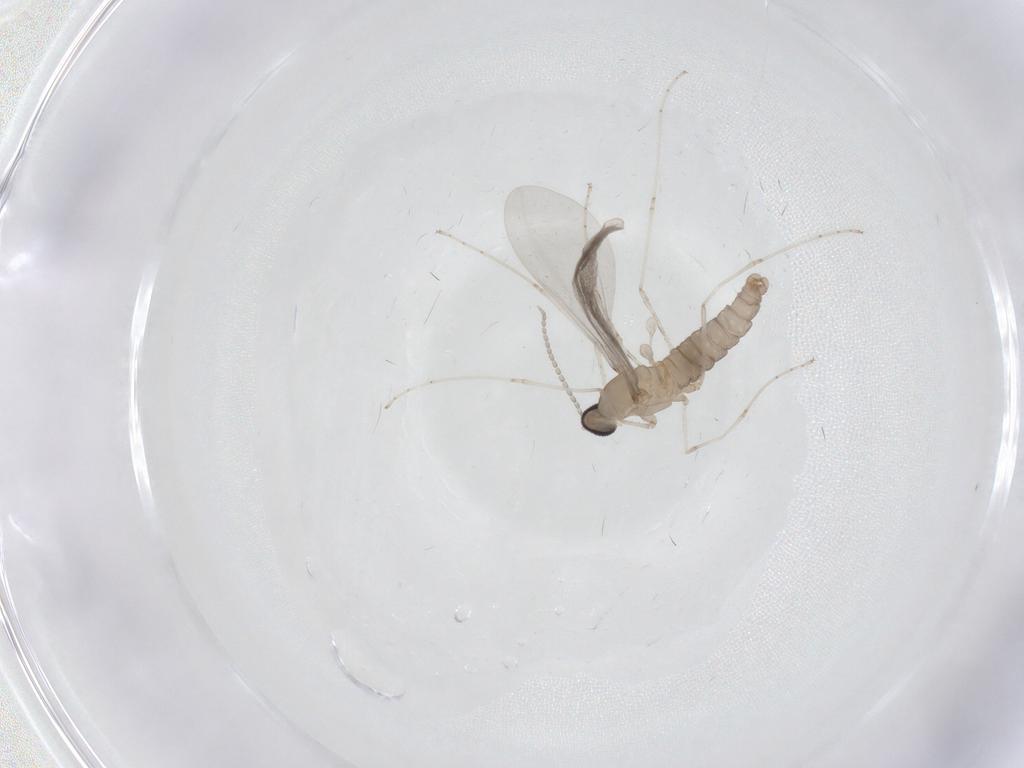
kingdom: Animalia
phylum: Arthropoda
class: Insecta
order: Diptera
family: Cecidomyiidae
